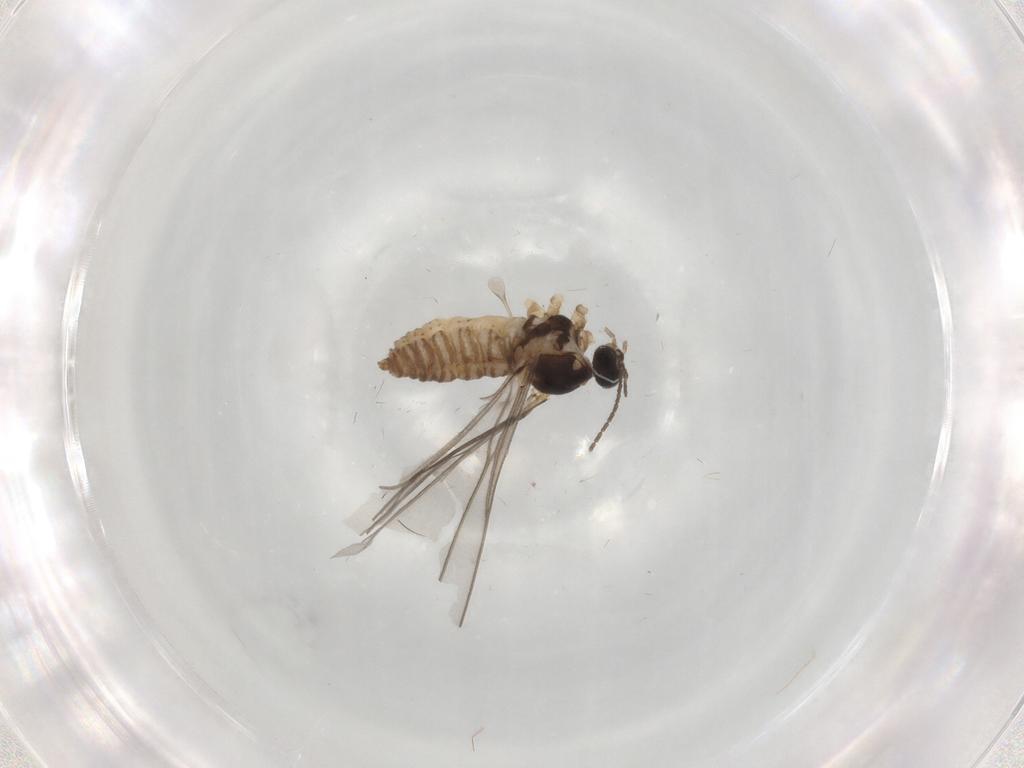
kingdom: Animalia
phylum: Arthropoda
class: Insecta
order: Diptera
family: Cecidomyiidae
